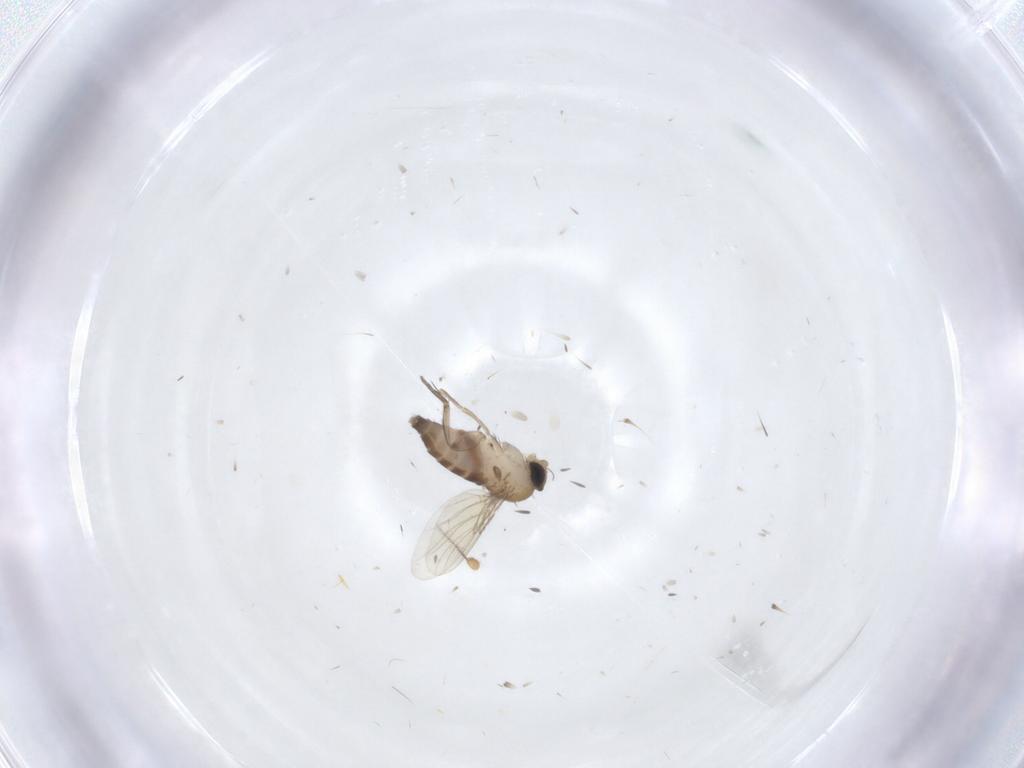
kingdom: Animalia
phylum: Arthropoda
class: Insecta
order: Diptera
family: Phoridae
